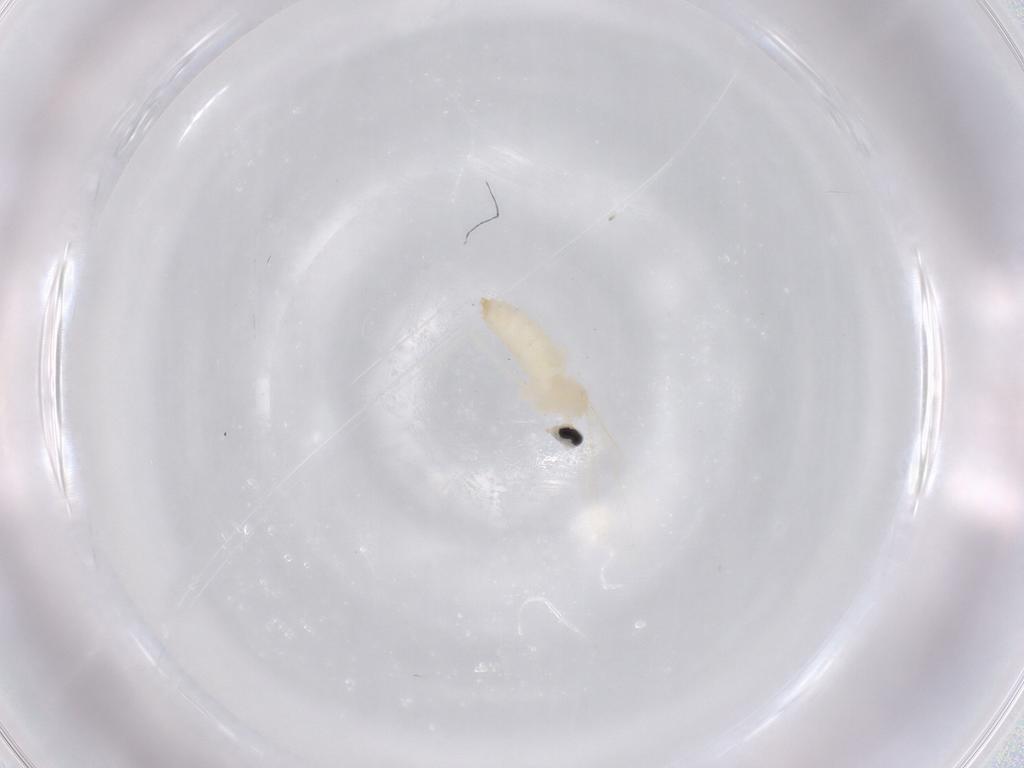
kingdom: Animalia
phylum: Arthropoda
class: Insecta
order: Diptera
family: Cecidomyiidae
